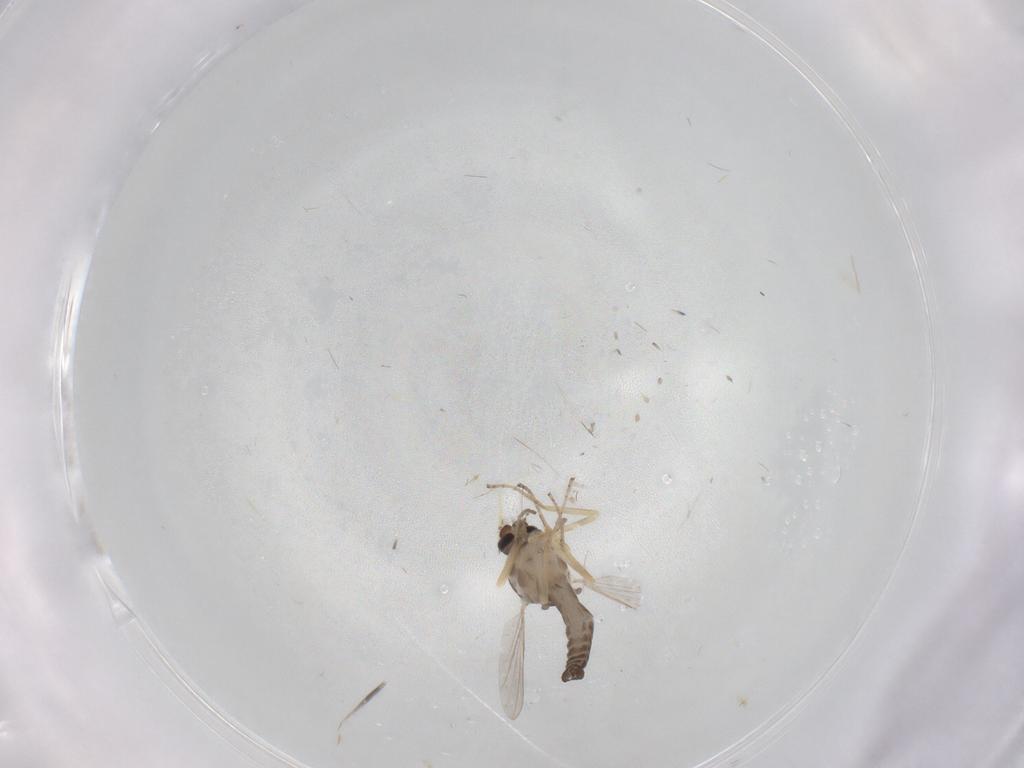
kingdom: Animalia
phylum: Arthropoda
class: Insecta
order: Diptera
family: Ceratopogonidae
